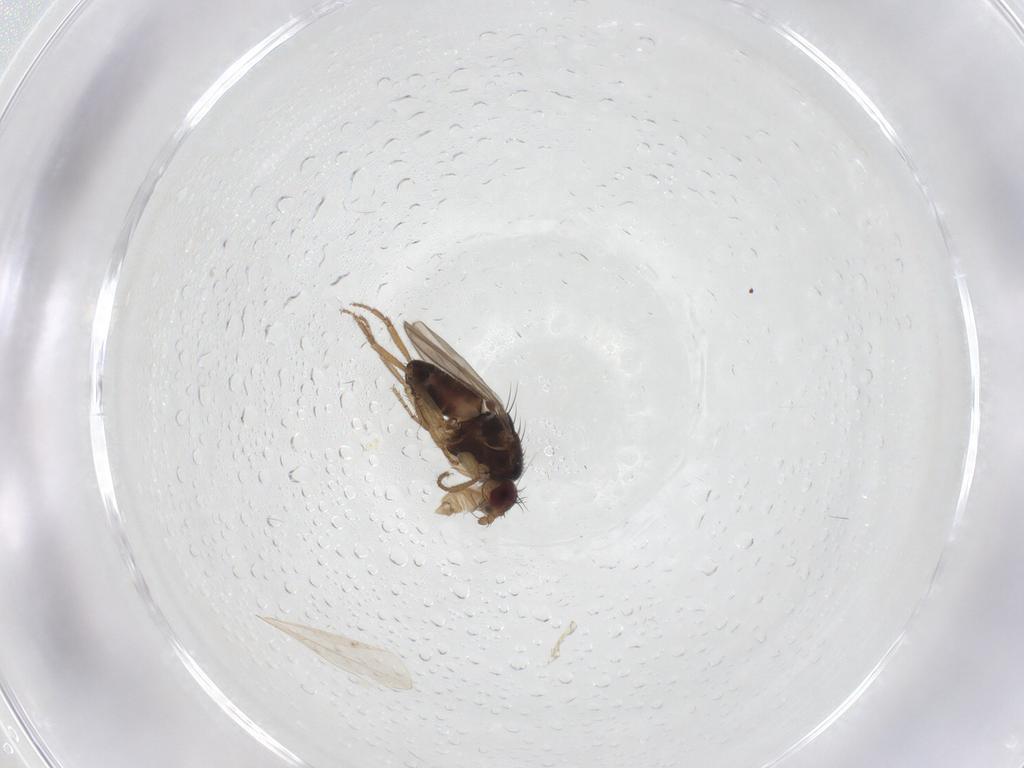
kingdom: Animalia
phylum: Arthropoda
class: Insecta
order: Diptera
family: Sphaeroceridae
